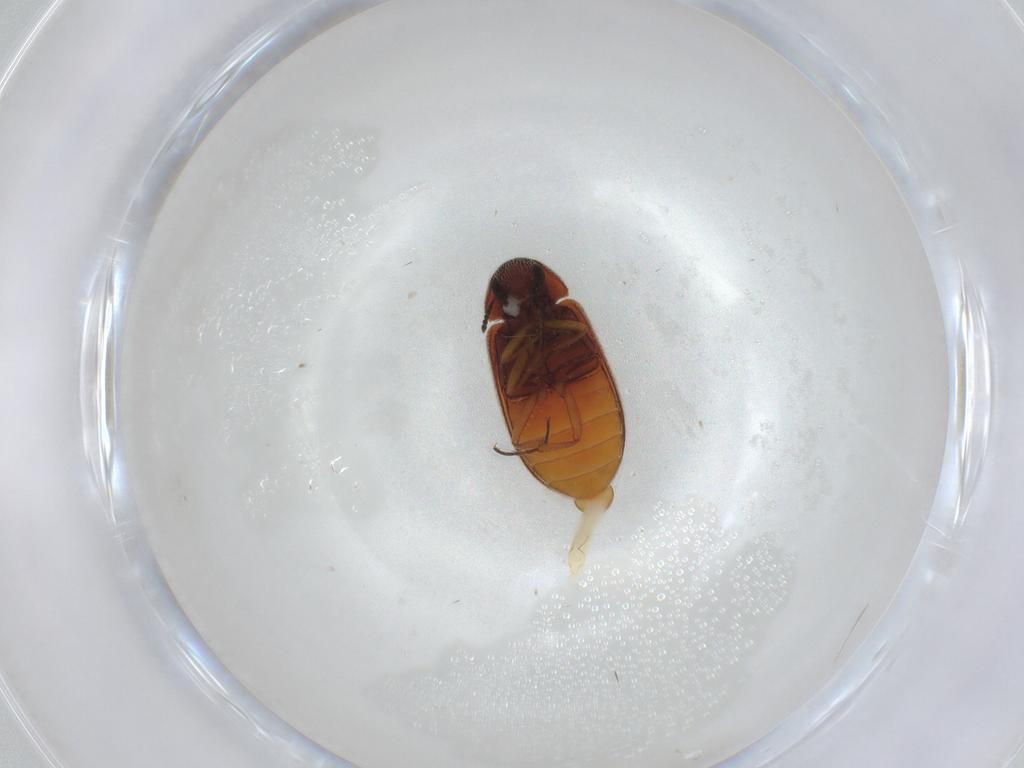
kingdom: Animalia
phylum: Arthropoda
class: Insecta
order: Coleoptera
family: Rhadalidae
